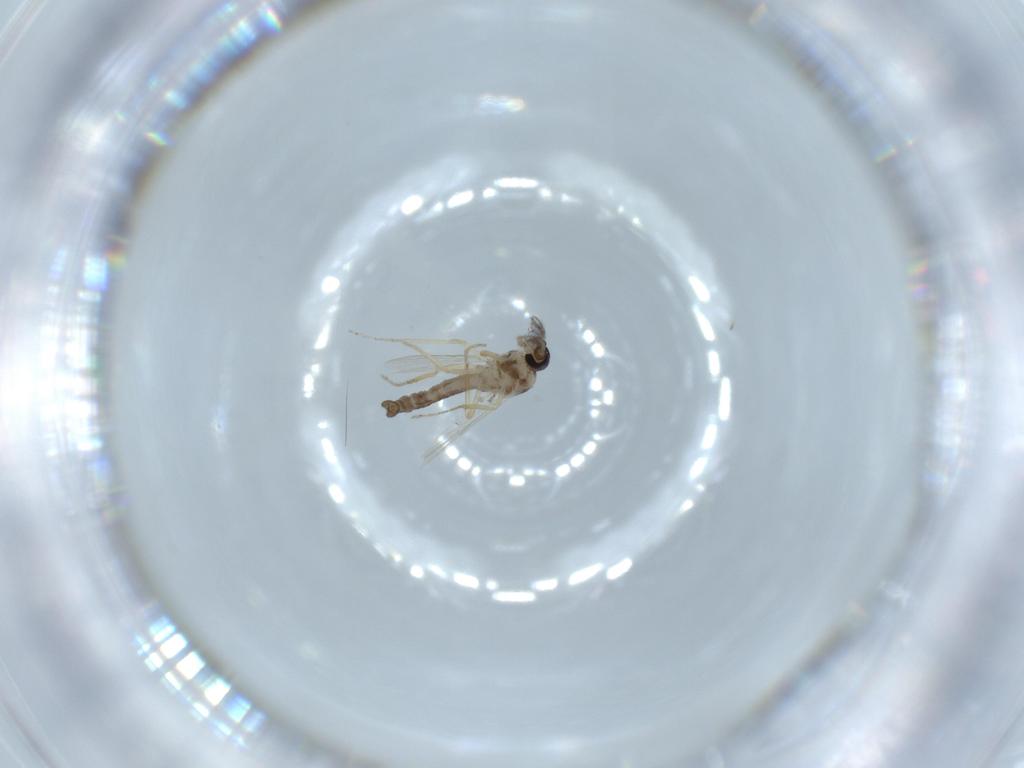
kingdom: Animalia
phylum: Arthropoda
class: Insecta
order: Diptera
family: Ceratopogonidae
